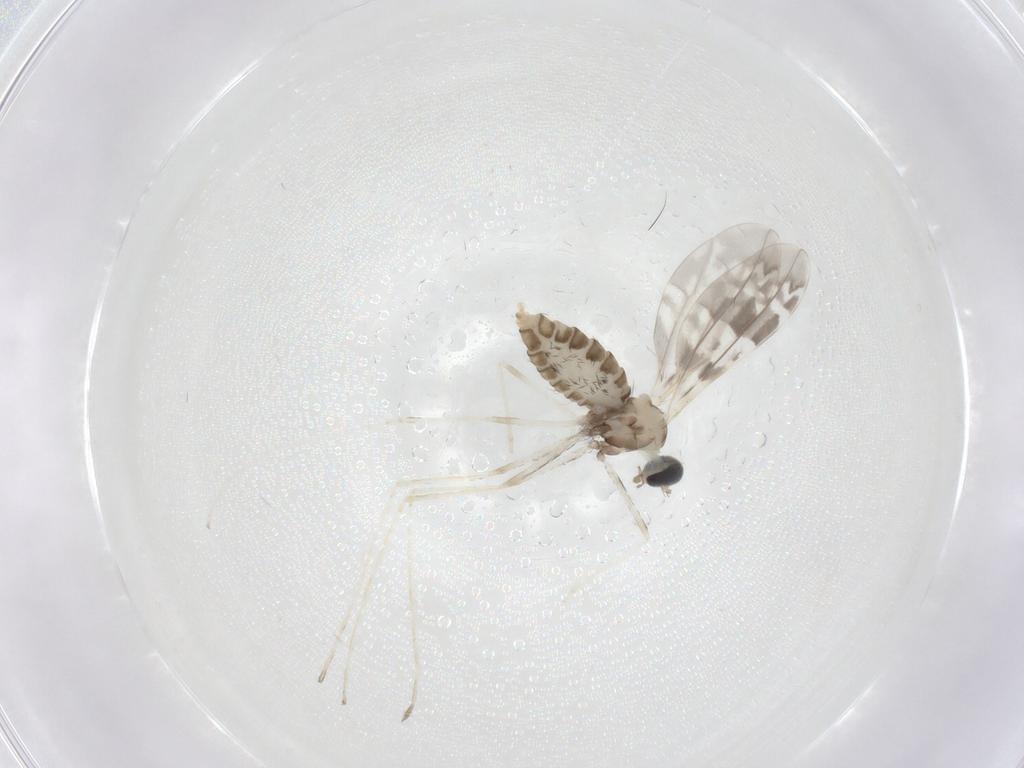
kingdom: Animalia
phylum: Arthropoda
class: Insecta
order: Diptera
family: Cecidomyiidae
